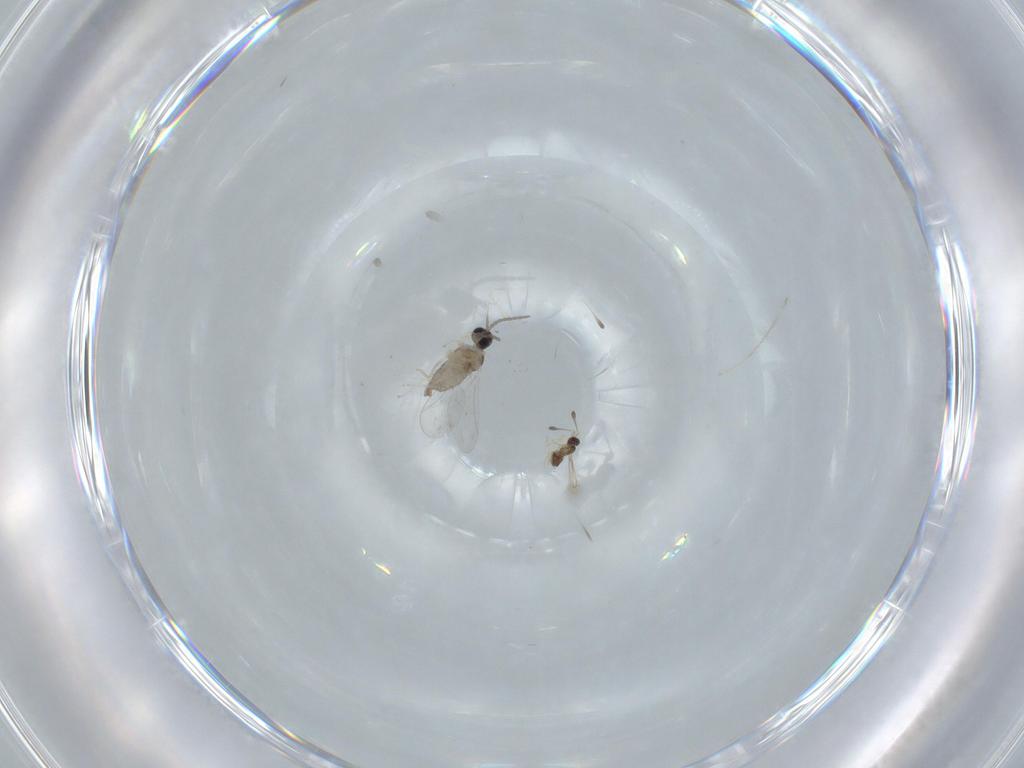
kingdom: Animalia
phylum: Arthropoda
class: Insecta
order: Diptera
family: Cecidomyiidae
